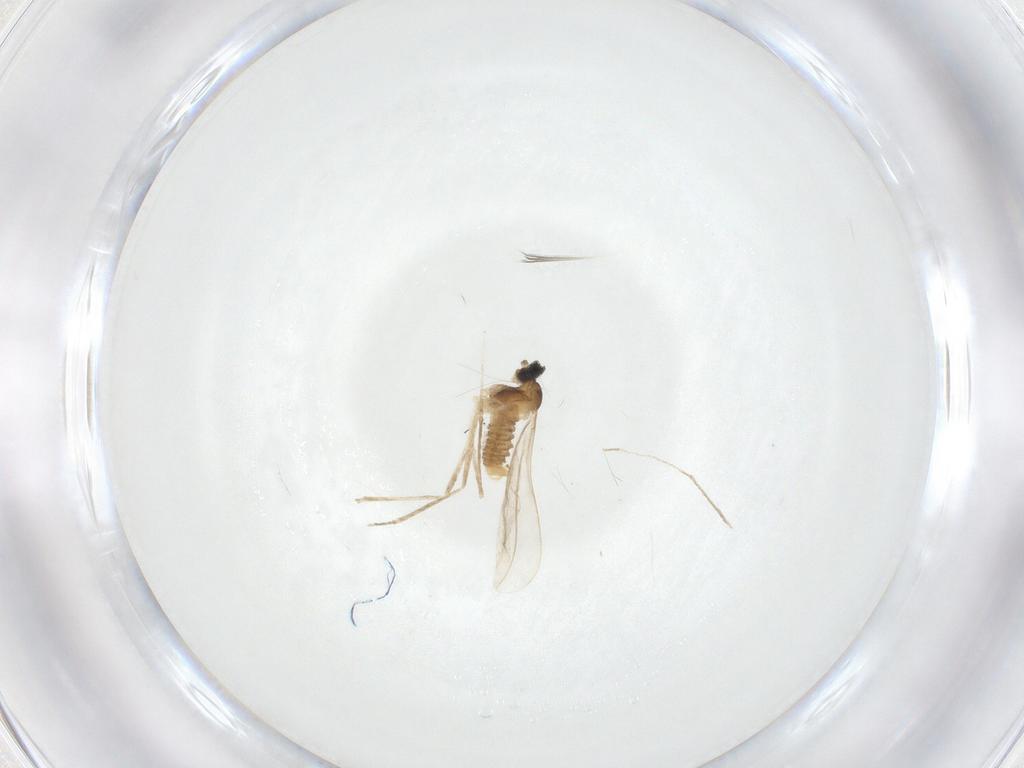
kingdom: Animalia
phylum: Arthropoda
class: Insecta
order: Diptera
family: Cecidomyiidae
